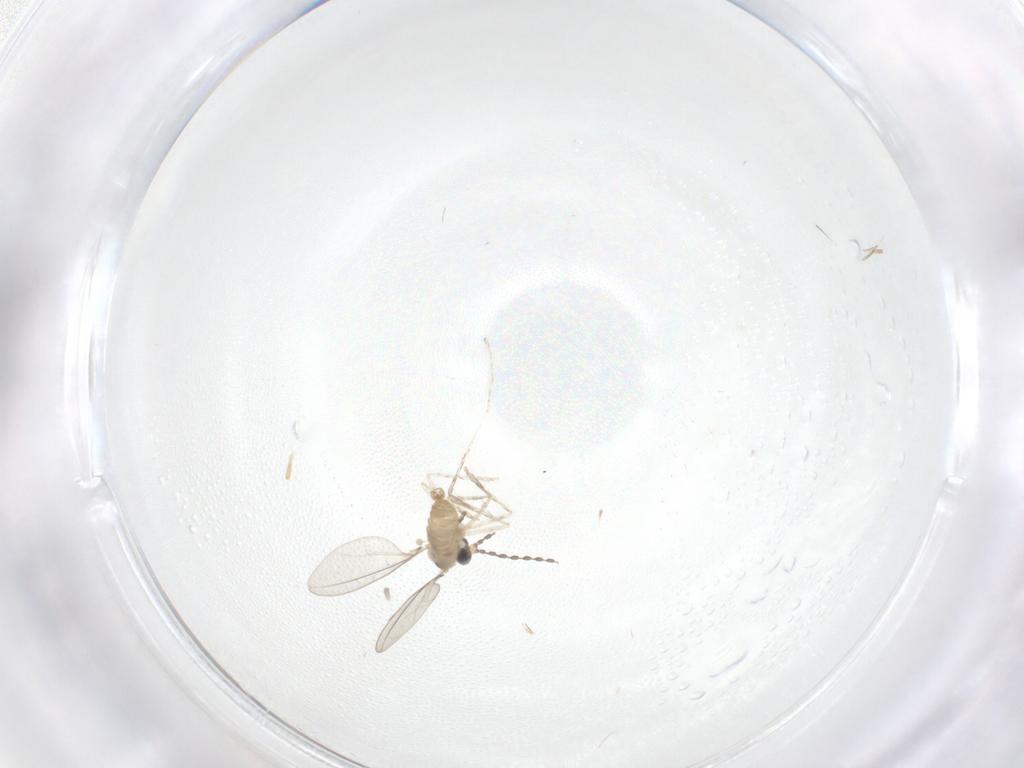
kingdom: Animalia
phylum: Arthropoda
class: Insecta
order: Diptera
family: Cecidomyiidae
